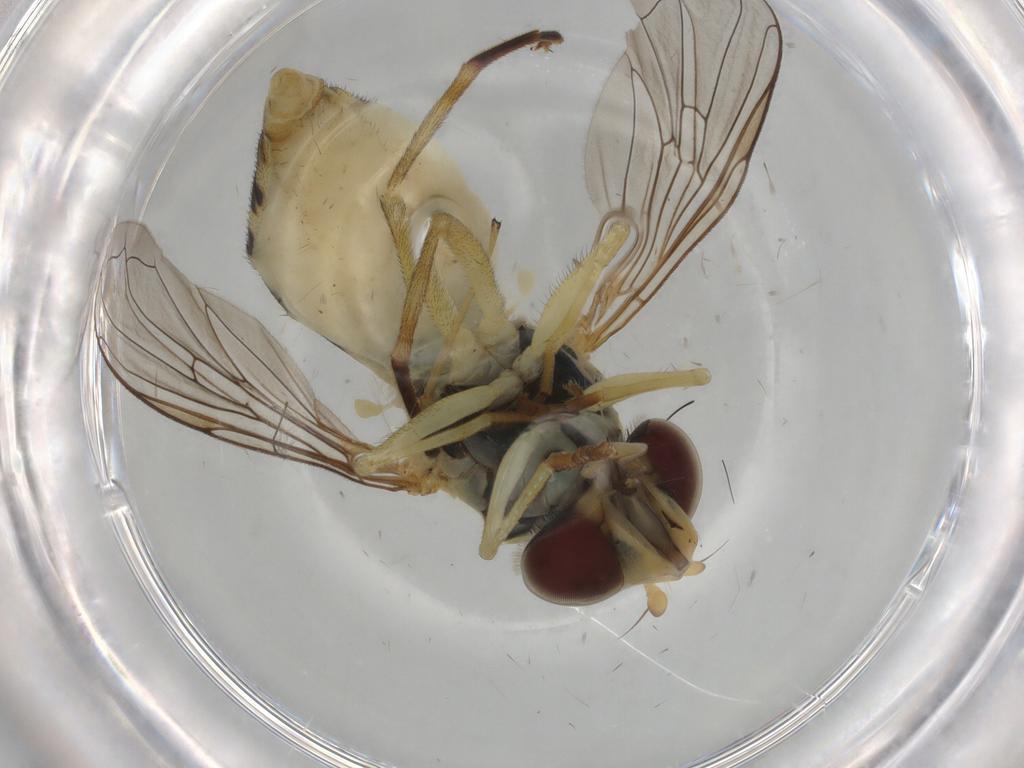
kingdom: Animalia
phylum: Arthropoda
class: Insecta
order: Diptera
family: Syrphidae
